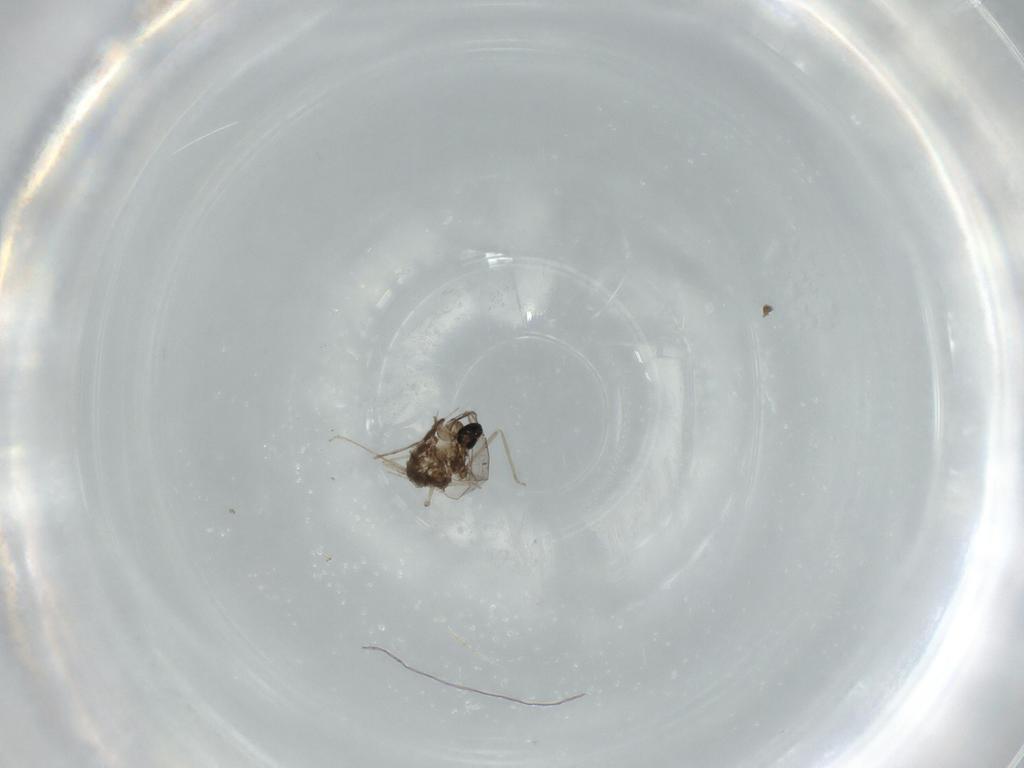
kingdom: Animalia
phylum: Arthropoda
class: Insecta
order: Diptera
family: Cecidomyiidae
